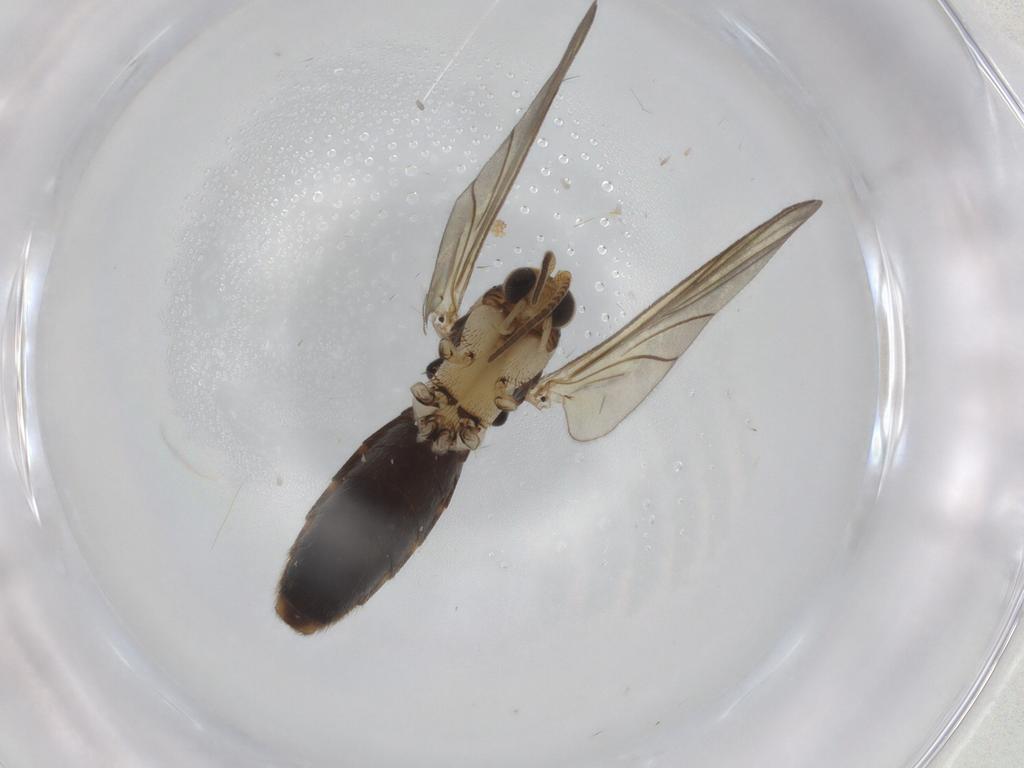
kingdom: Animalia
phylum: Arthropoda
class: Insecta
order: Diptera
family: Mycetophilidae
